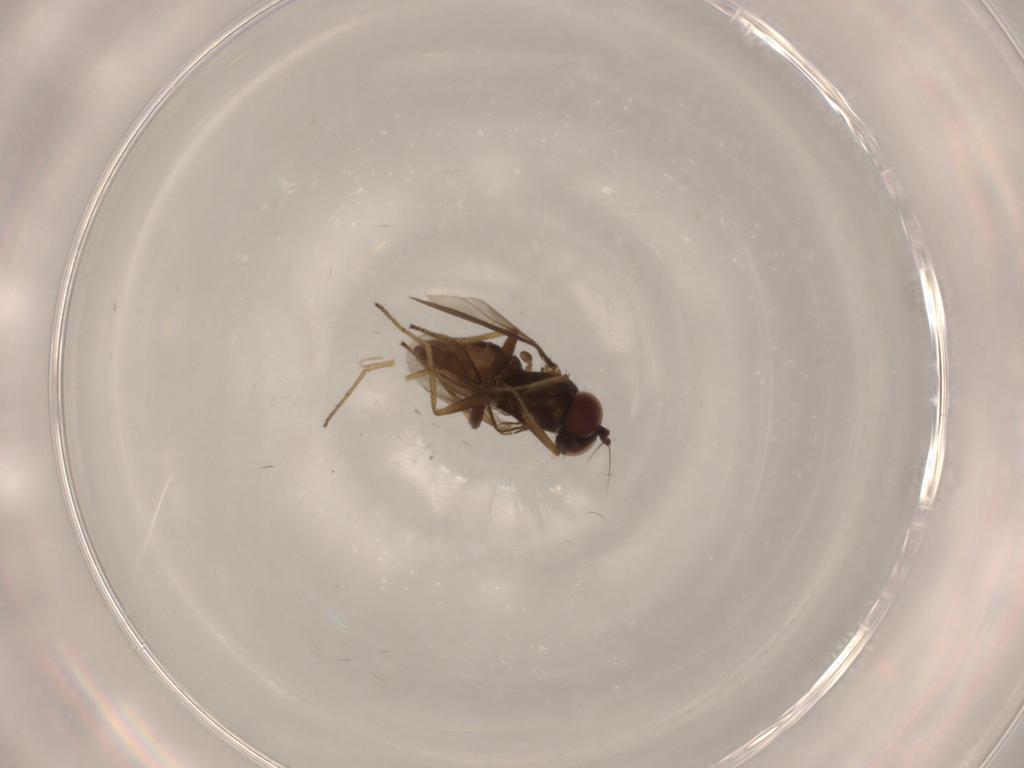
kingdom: Animalia
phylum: Arthropoda
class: Insecta
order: Diptera
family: Dolichopodidae
